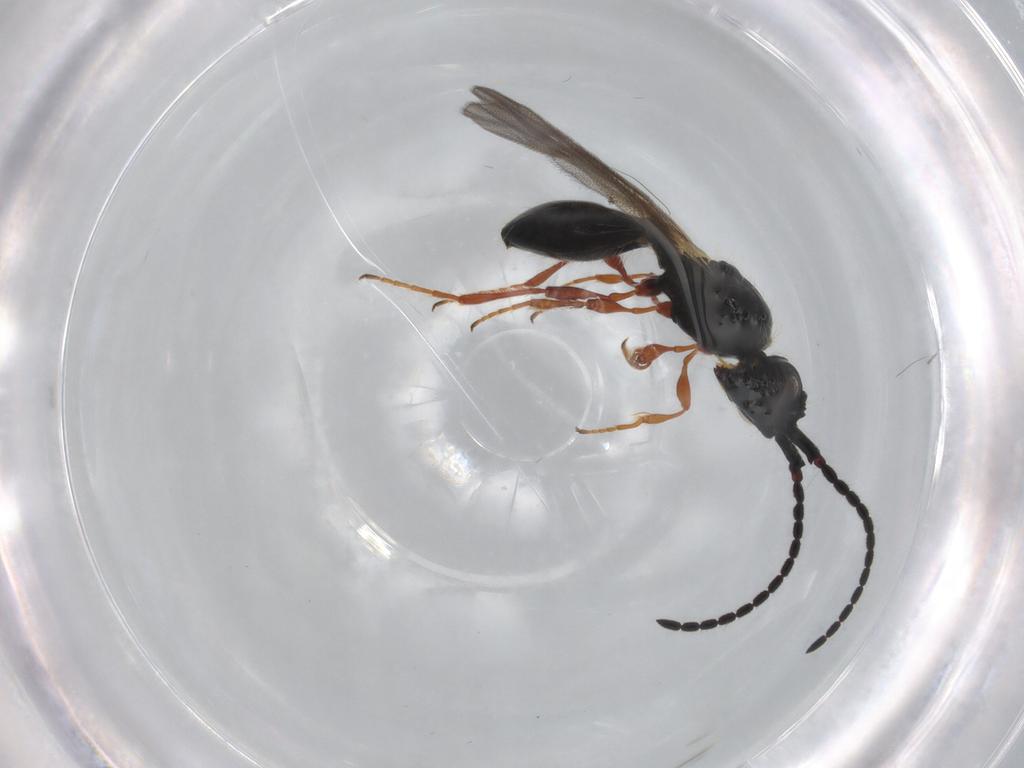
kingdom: Animalia
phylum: Arthropoda
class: Insecta
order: Hymenoptera
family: Diapriidae
